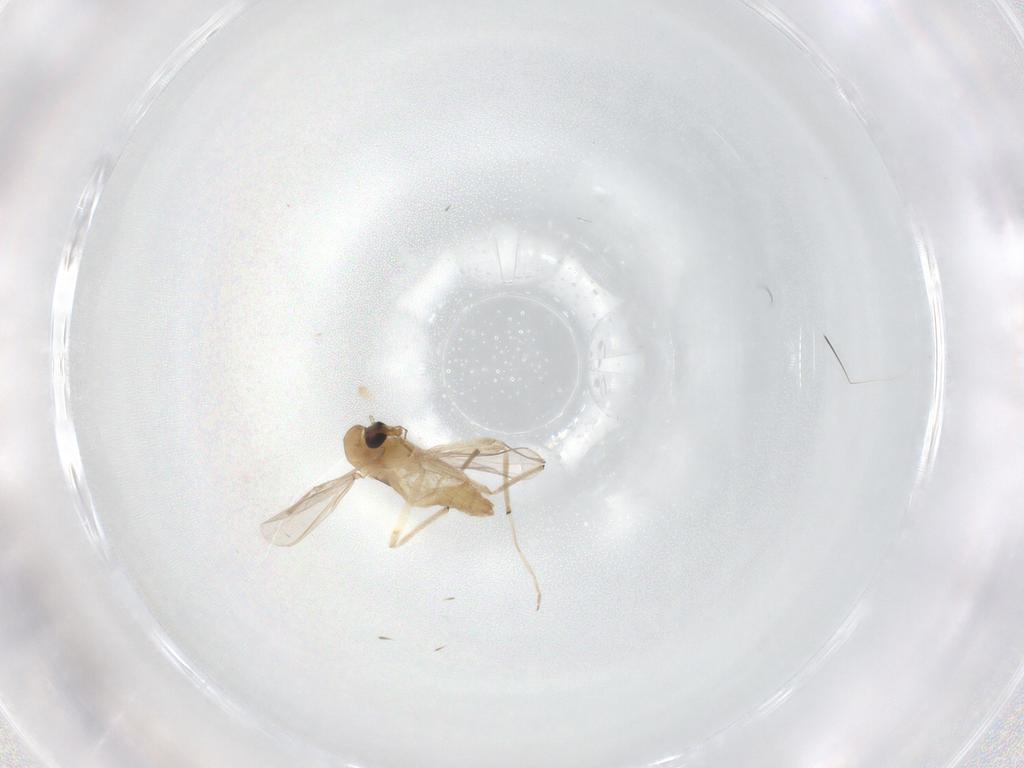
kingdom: Animalia
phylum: Arthropoda
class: Insecta
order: Diptera
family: Chironomidae
